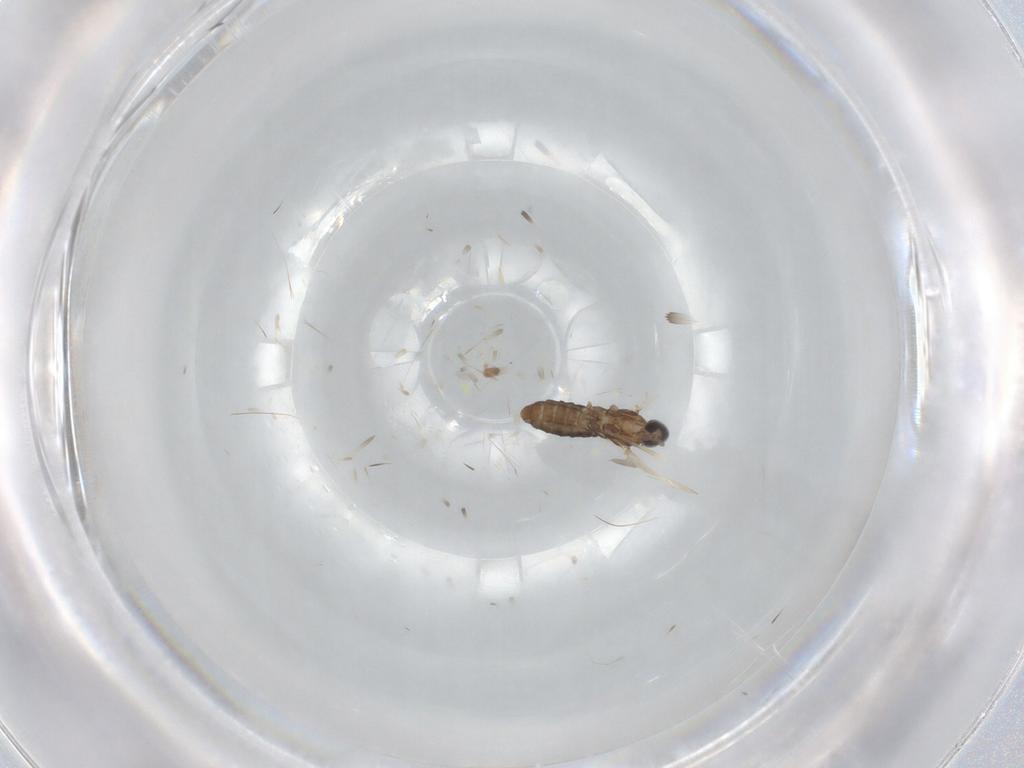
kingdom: Animalia
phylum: Arthropoda
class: Insecta
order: Diptera
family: Cecidomyiidae
